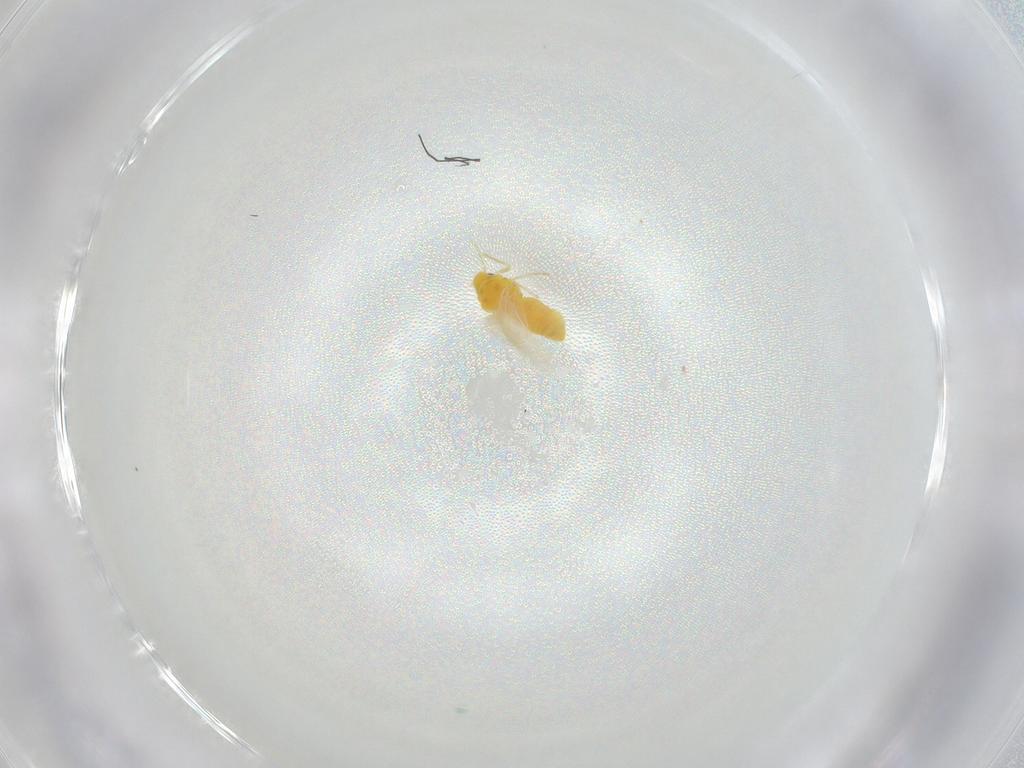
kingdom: Animalia
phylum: Arthropoda
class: Insecta
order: Hemiptera
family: Aleyrodidae
